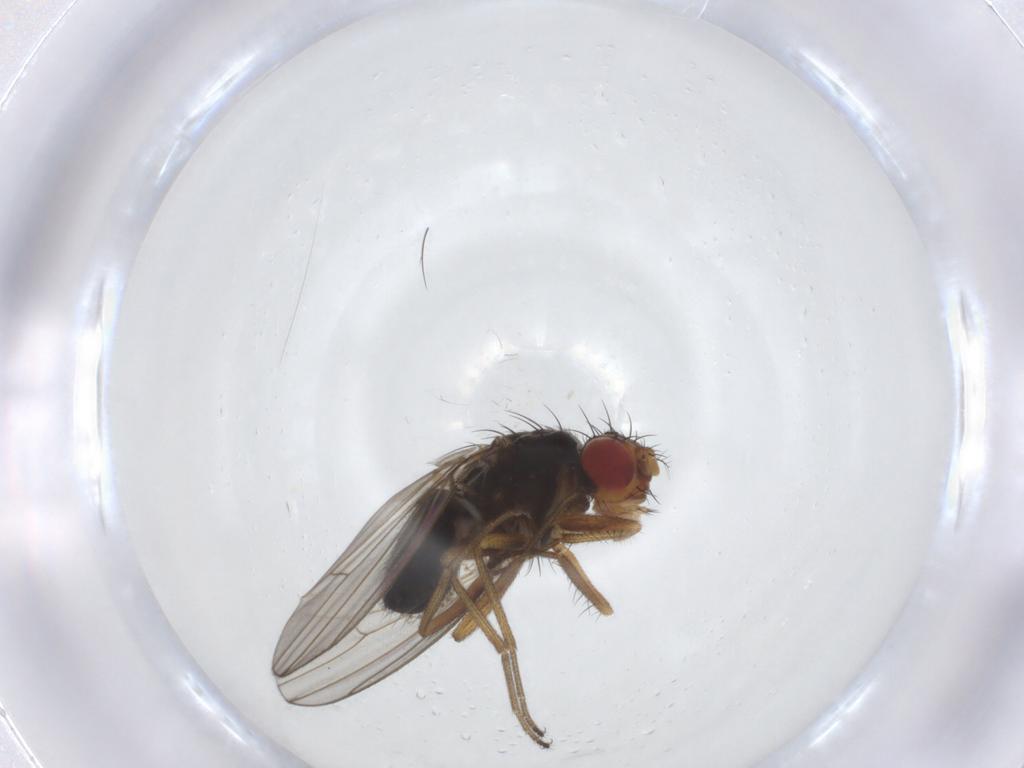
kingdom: Animalia
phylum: Arthropoda
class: Insecta
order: Diptera
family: Drosophilidae
